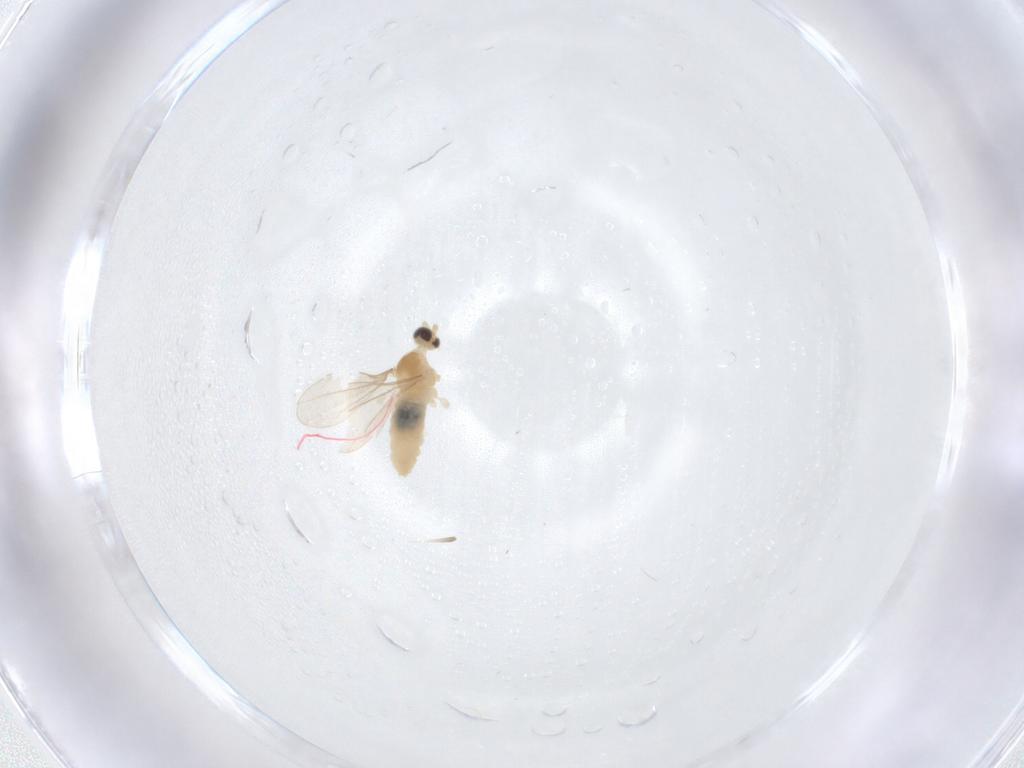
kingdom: Animalia
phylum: Arthropoda
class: Insecta
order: Diptera
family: Cecidomyiidae
